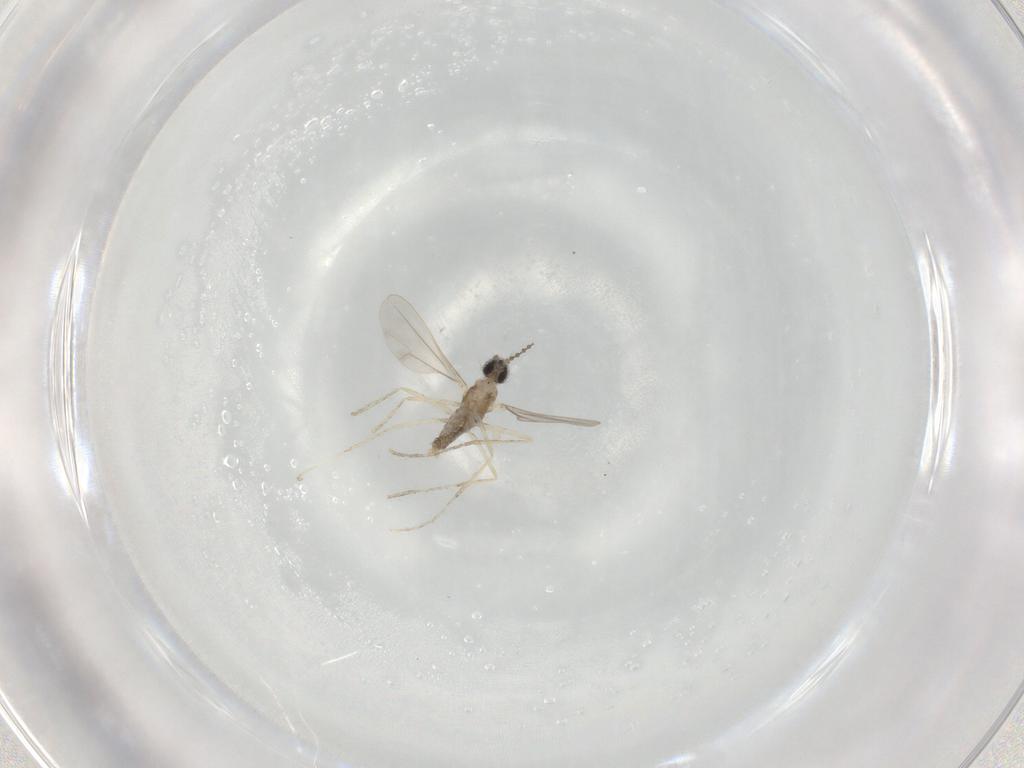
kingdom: Animalia
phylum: Arthropoda
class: Insecta
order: Diptera
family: Cecidomyiidae
